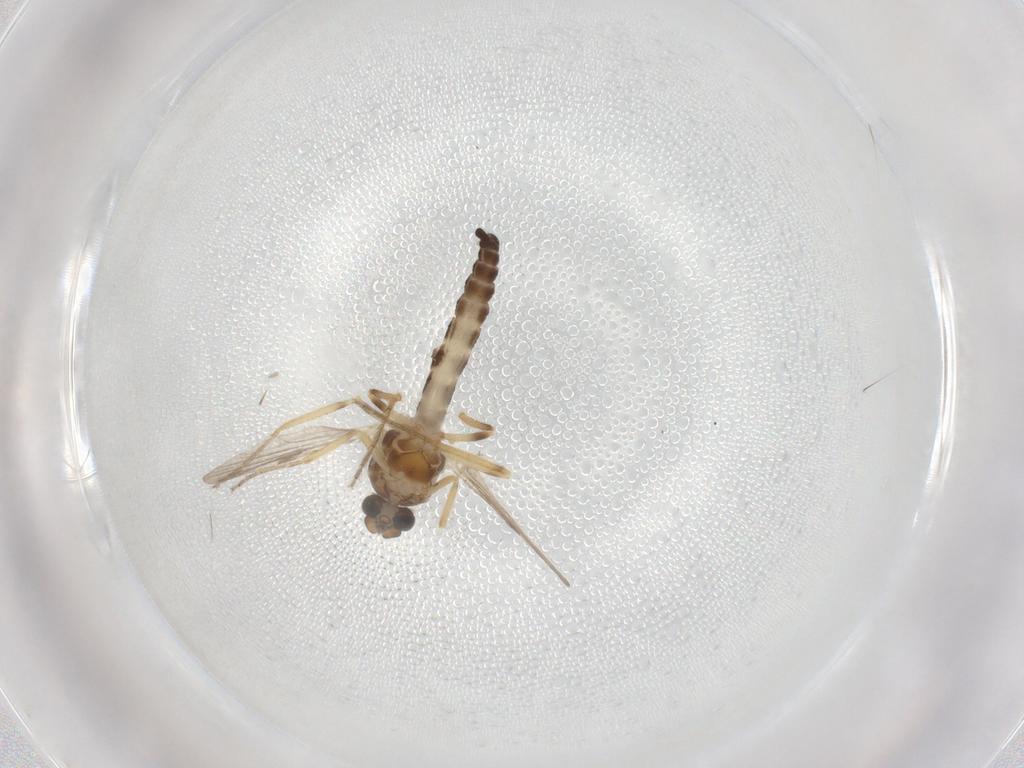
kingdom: Animalia
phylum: Arthropoda
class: Insecta
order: Diptera
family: Ceratopogonidae
